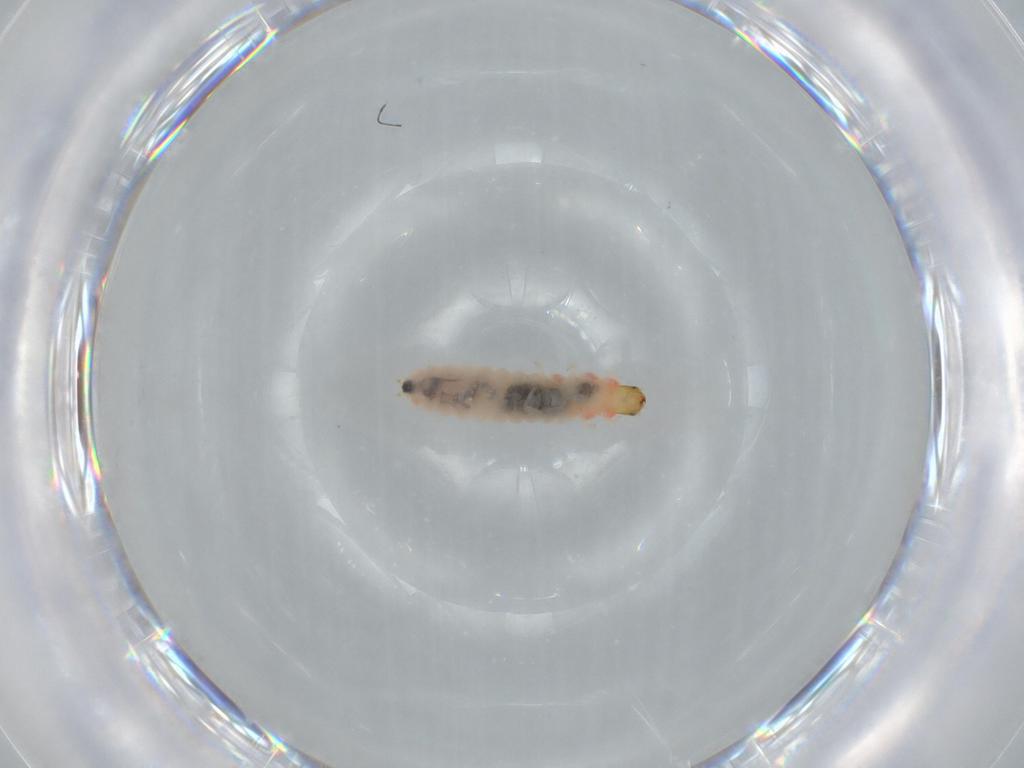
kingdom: Animalia
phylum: Arthropoda
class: Insecta
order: Coleoptera
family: Melyridae
